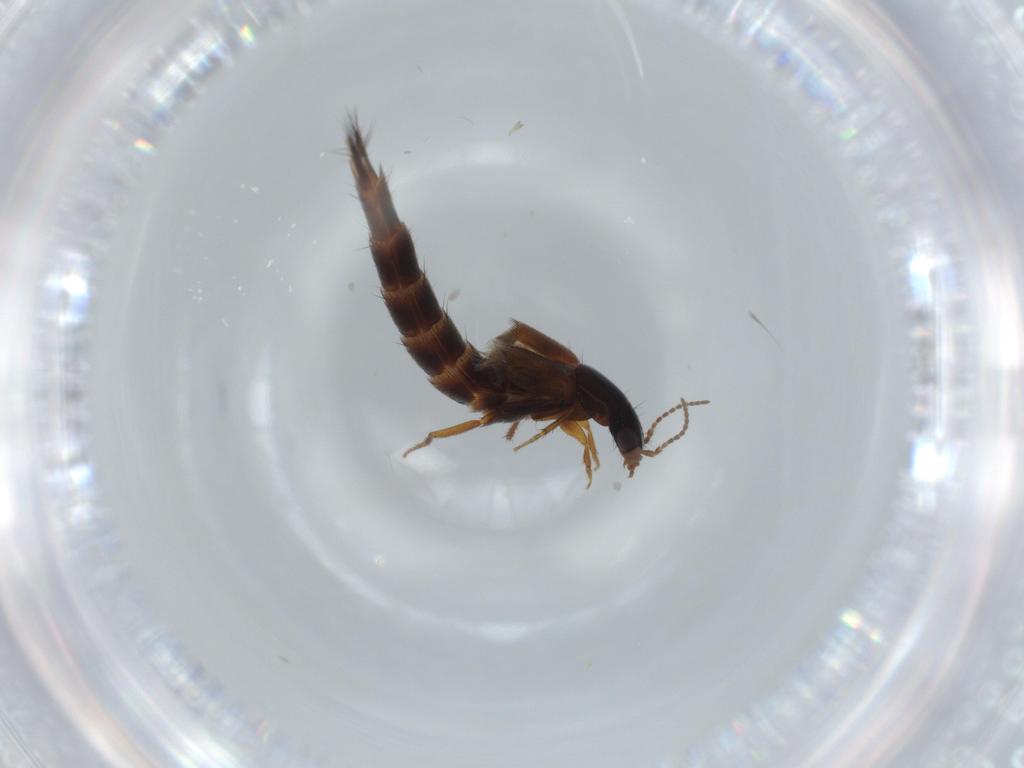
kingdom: Animalia
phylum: Arthropoda
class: Insecta
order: Coleoptera
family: Staphylinidae
